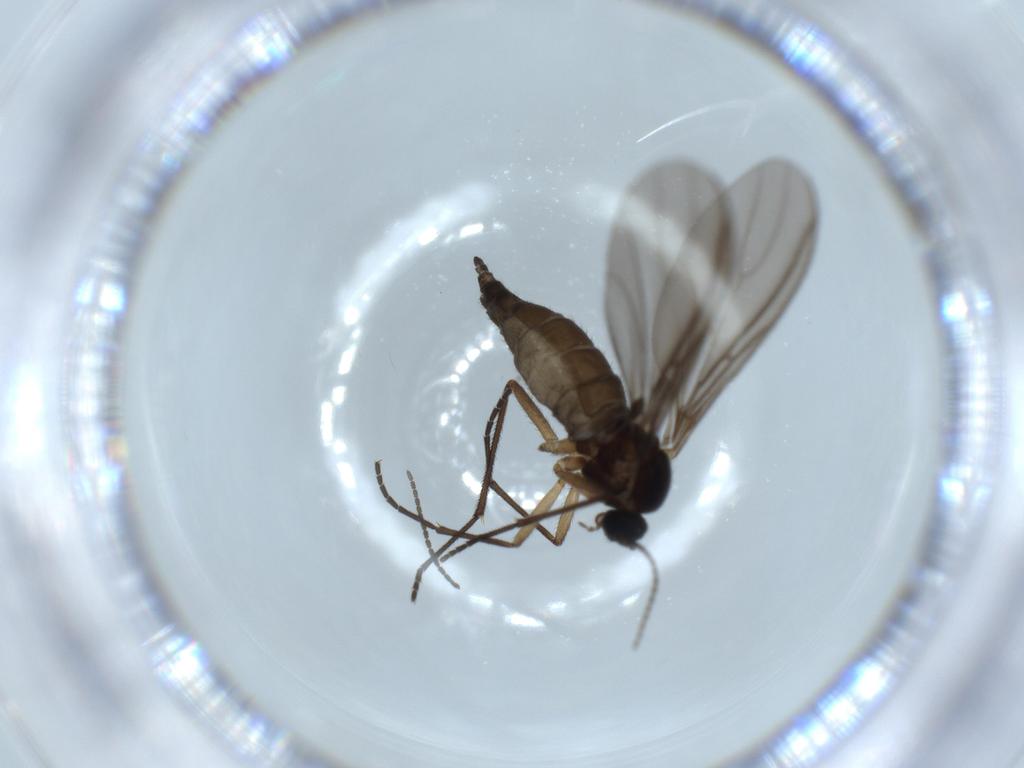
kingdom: Animalia
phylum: Arthropoda
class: Insecta
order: Diptera
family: Sciaridae
